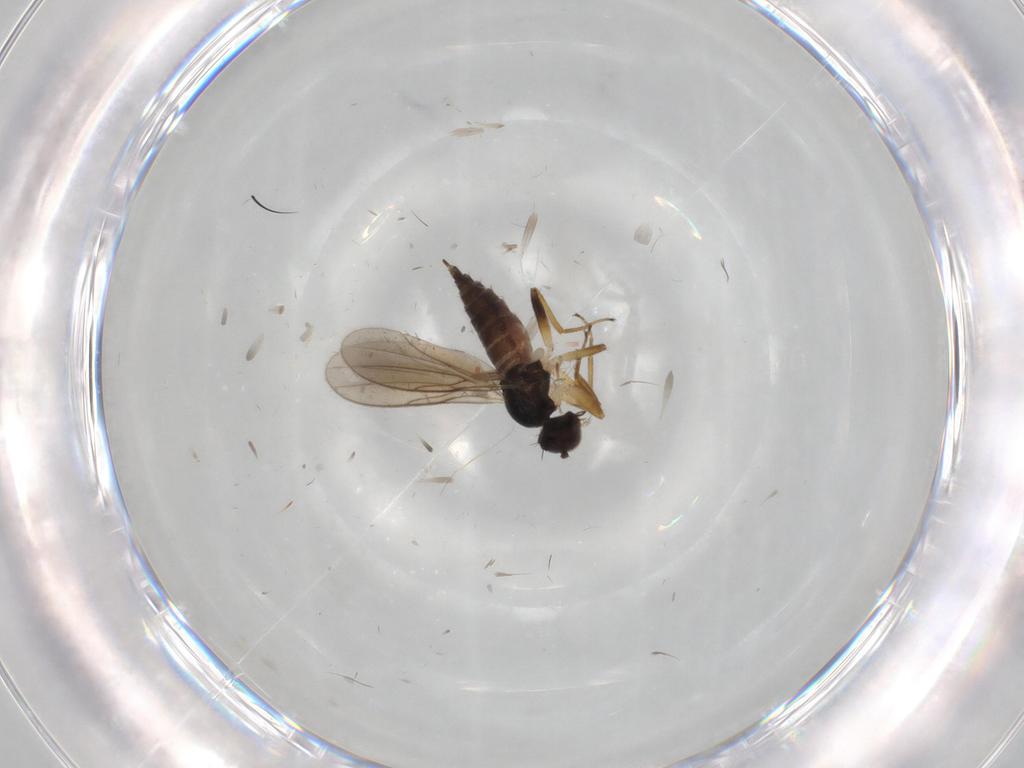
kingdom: Animalia
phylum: Arthropoda
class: Insecta
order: Diptera
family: Hybotidae
